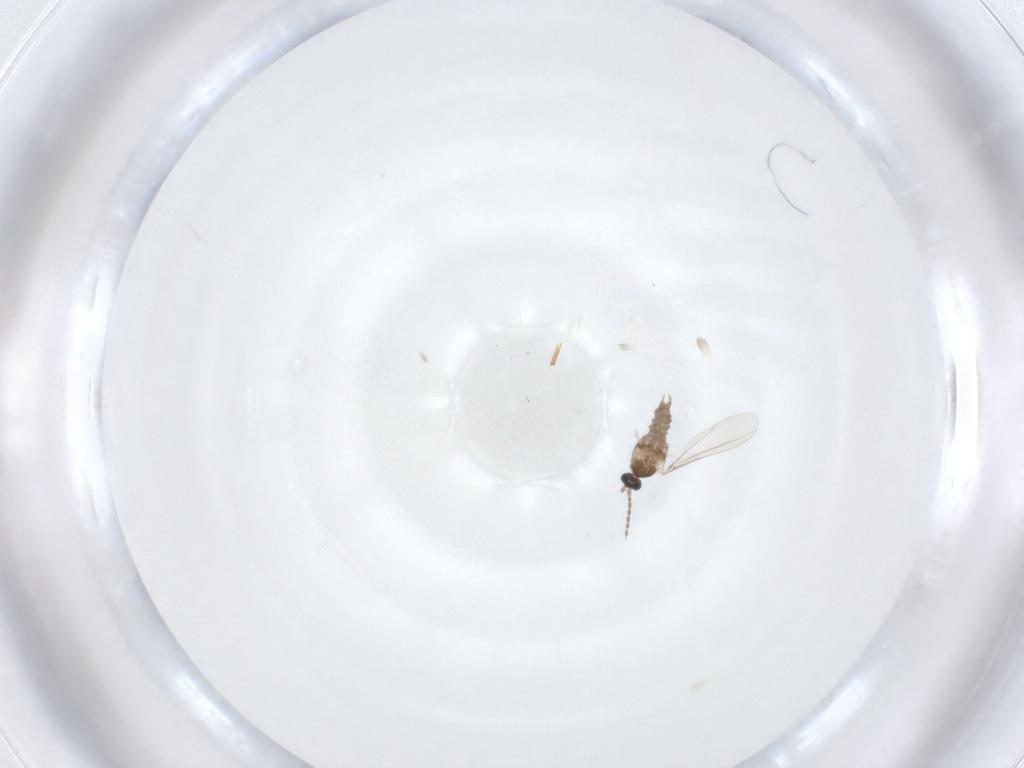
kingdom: Animalia
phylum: Arthropoda
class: Insecta
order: Diptera
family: Cecidomyiidae
